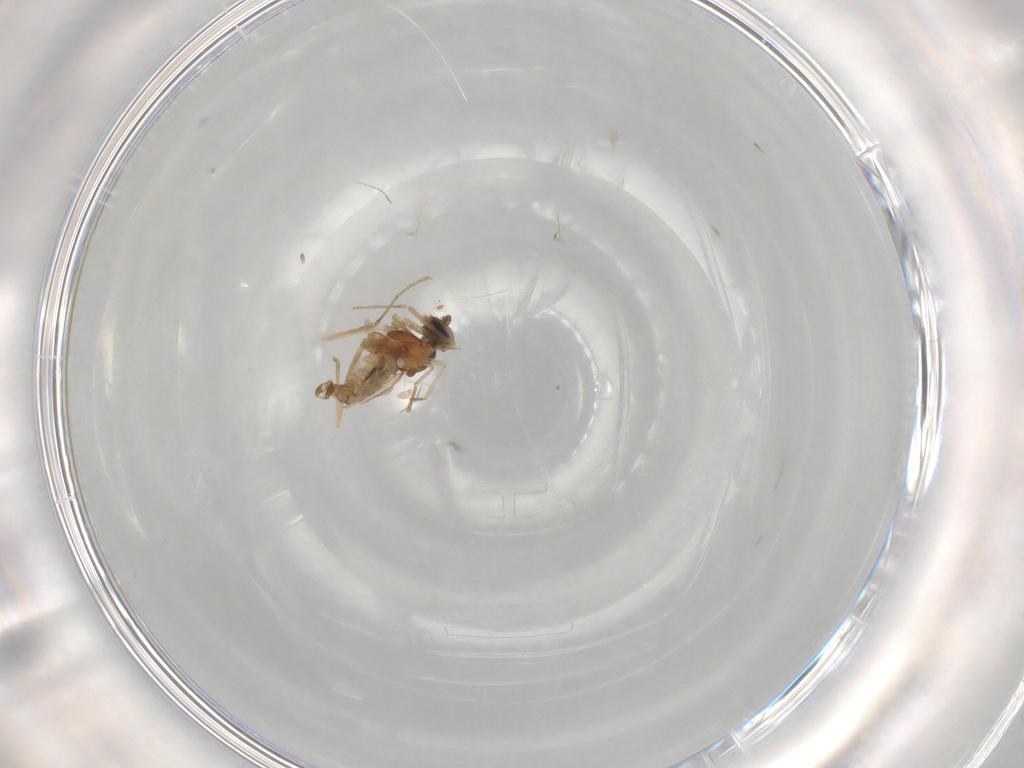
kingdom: Animalia
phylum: Arthropoda
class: Insecta
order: Diptera
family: Cecidomyiidae
